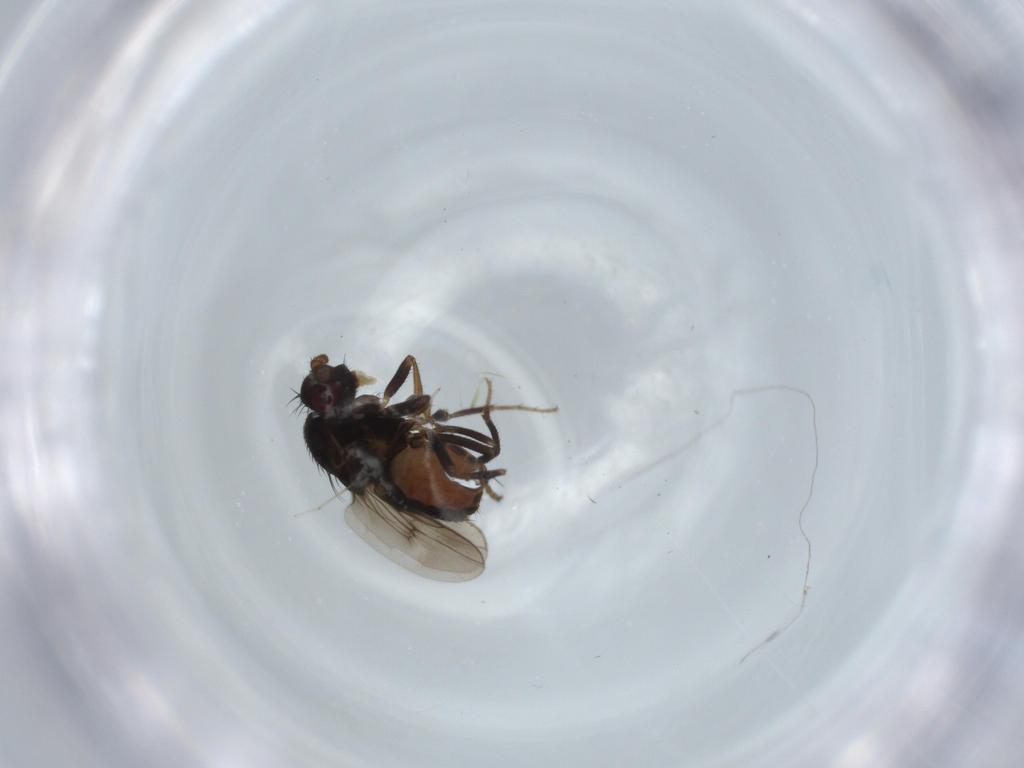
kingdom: Animalia
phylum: Arthropoda
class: Insecta
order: Diptera
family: Sphaeroceridae
